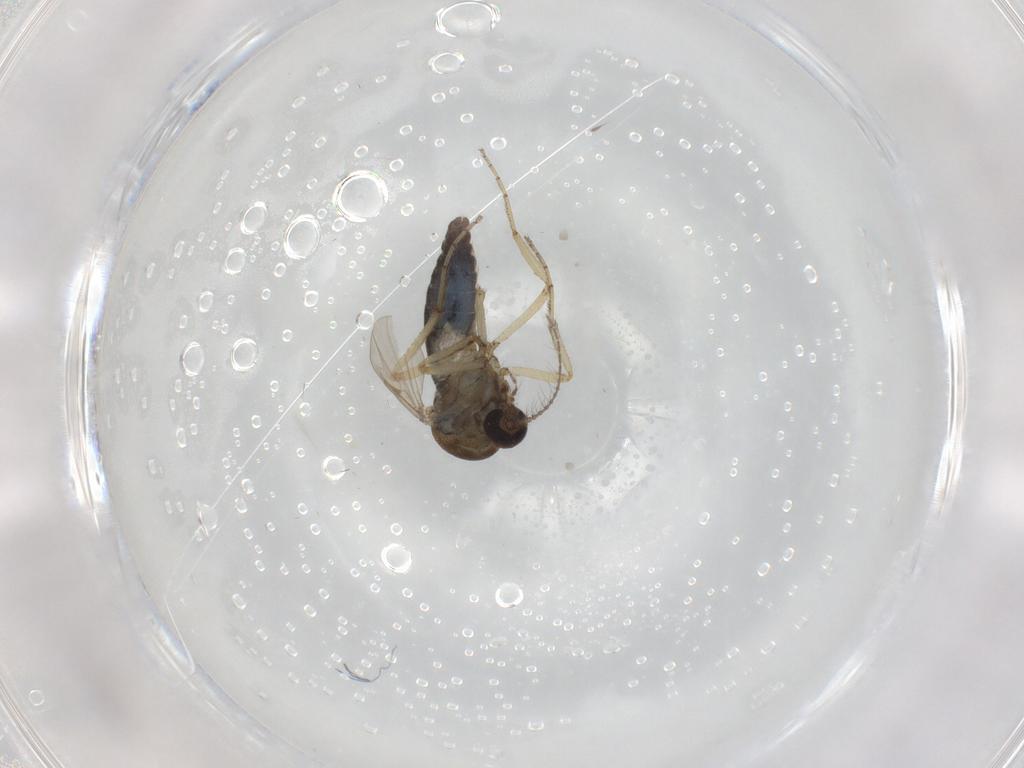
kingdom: Animalia
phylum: Arthropoda
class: Insecta
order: Diptera
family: Ceratopogonidae
